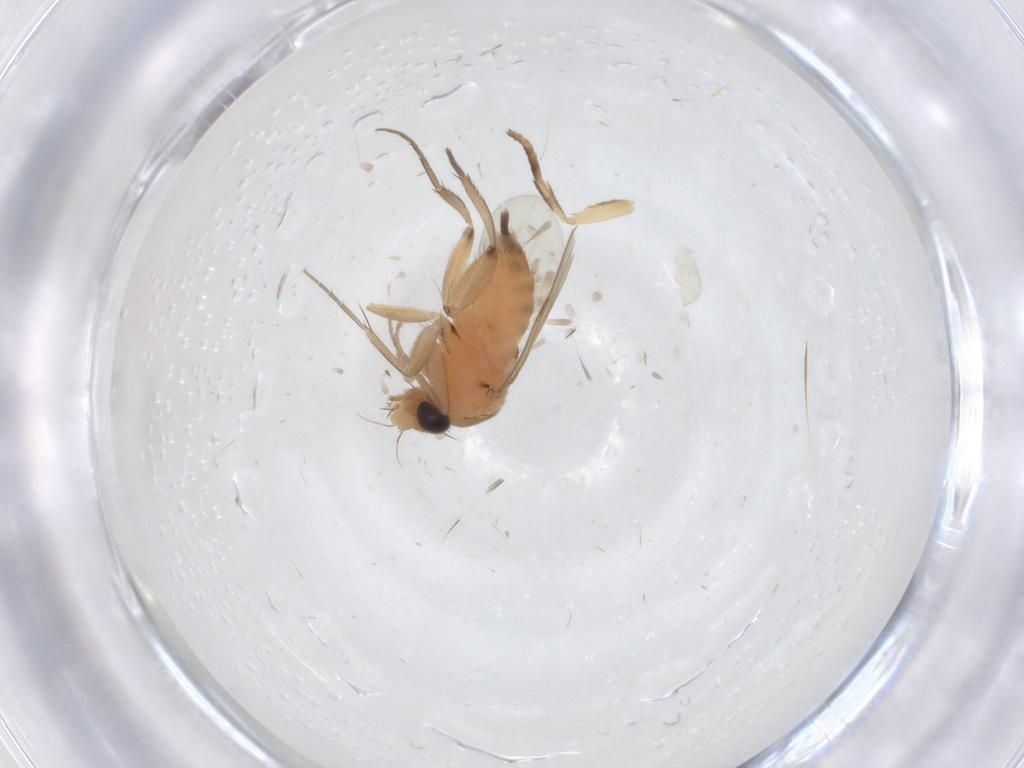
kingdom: Animalia
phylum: Arthropoda
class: Insecta
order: Diptera
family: Phoridae
